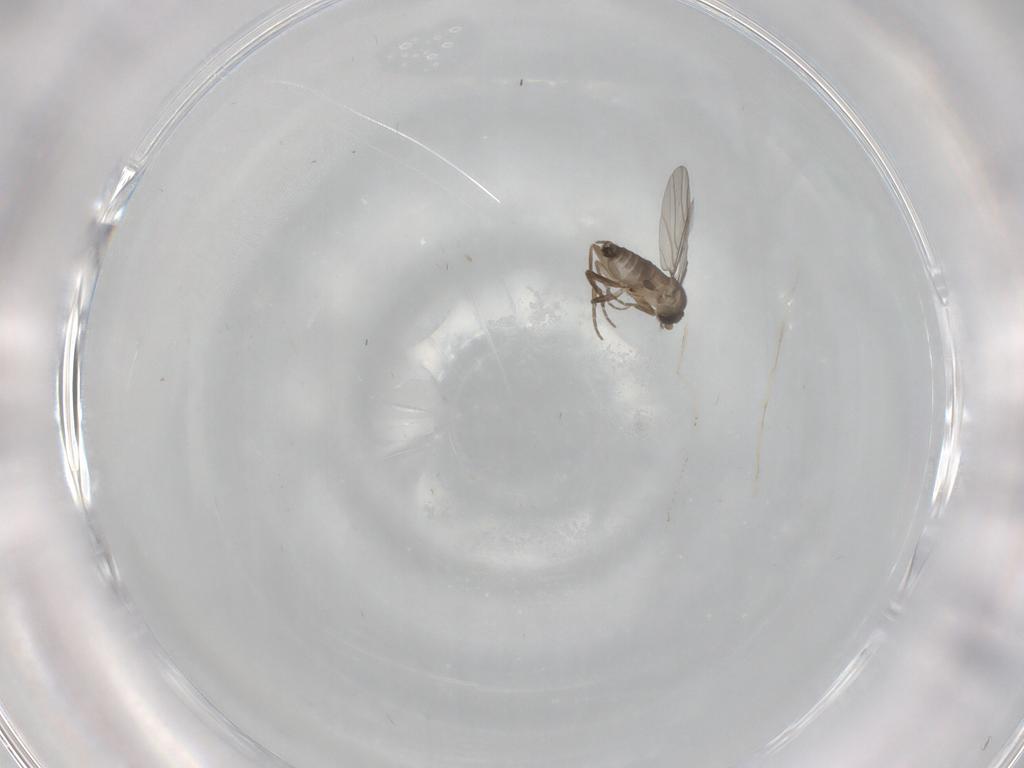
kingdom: Animalia
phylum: Arthropoda
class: Insecta
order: Diptera
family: Cecidomyiidae
